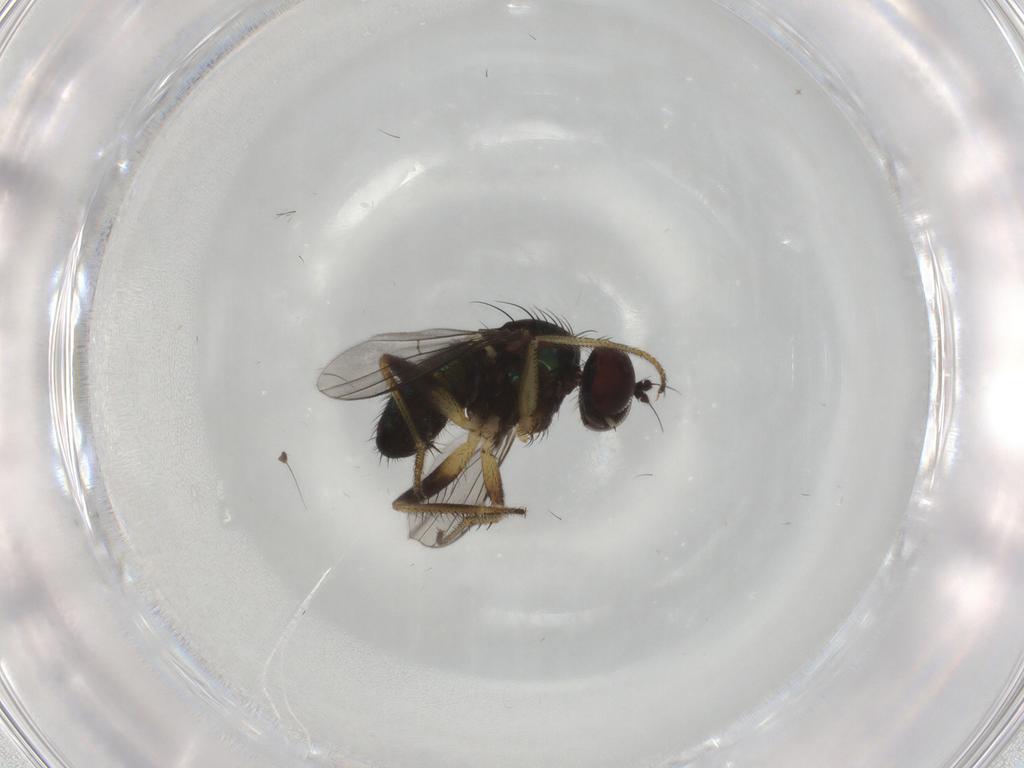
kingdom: Animalia
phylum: Arthropoda
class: Insecta
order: Diptera
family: Dolichopodidae
